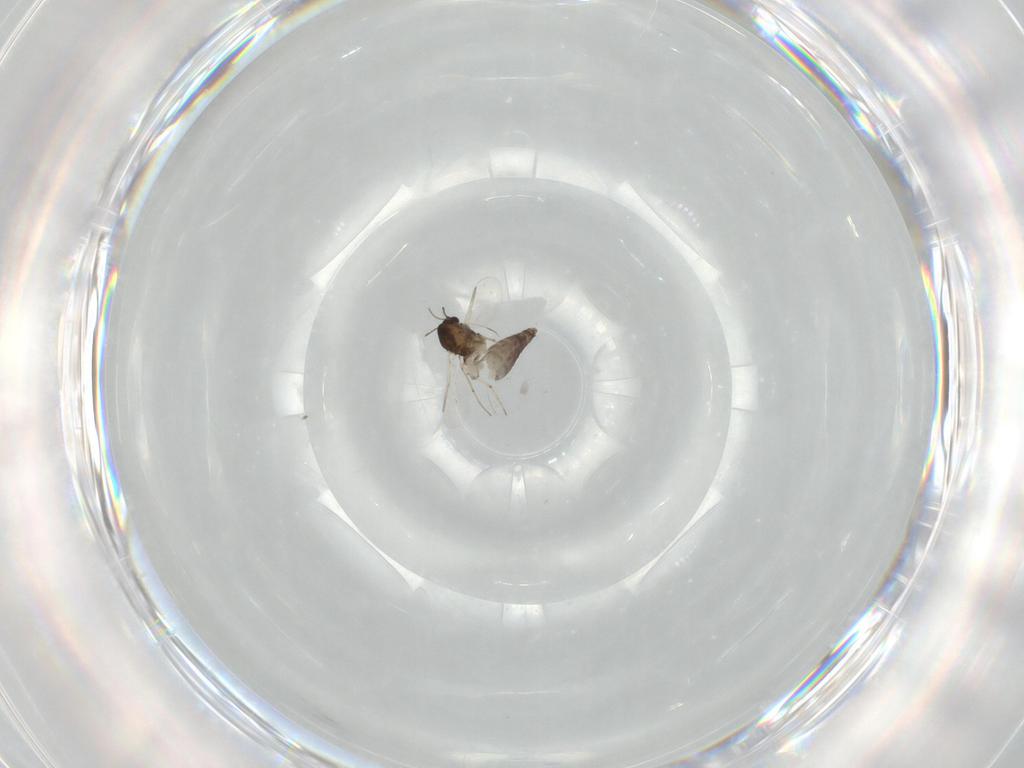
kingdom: Animalia
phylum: Arthropoda
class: Insecta
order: Diptera
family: Chironomidae
